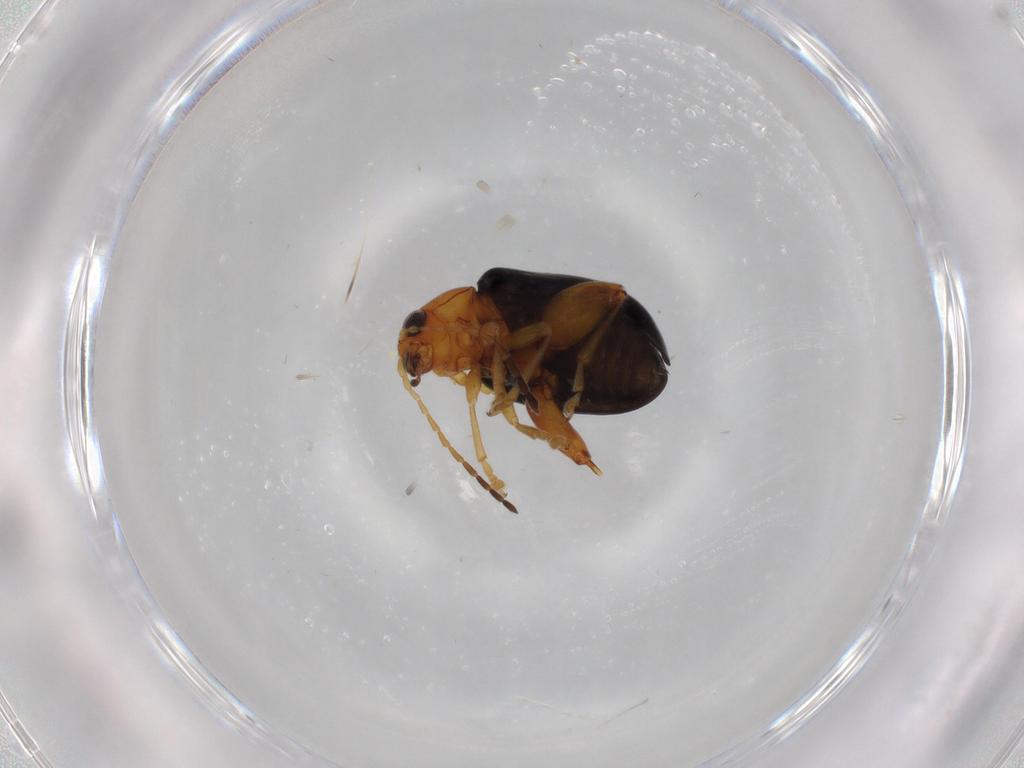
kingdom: Animalia
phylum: Arthropoda
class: Insecta
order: Coleoptera
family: Chrysomelidae
